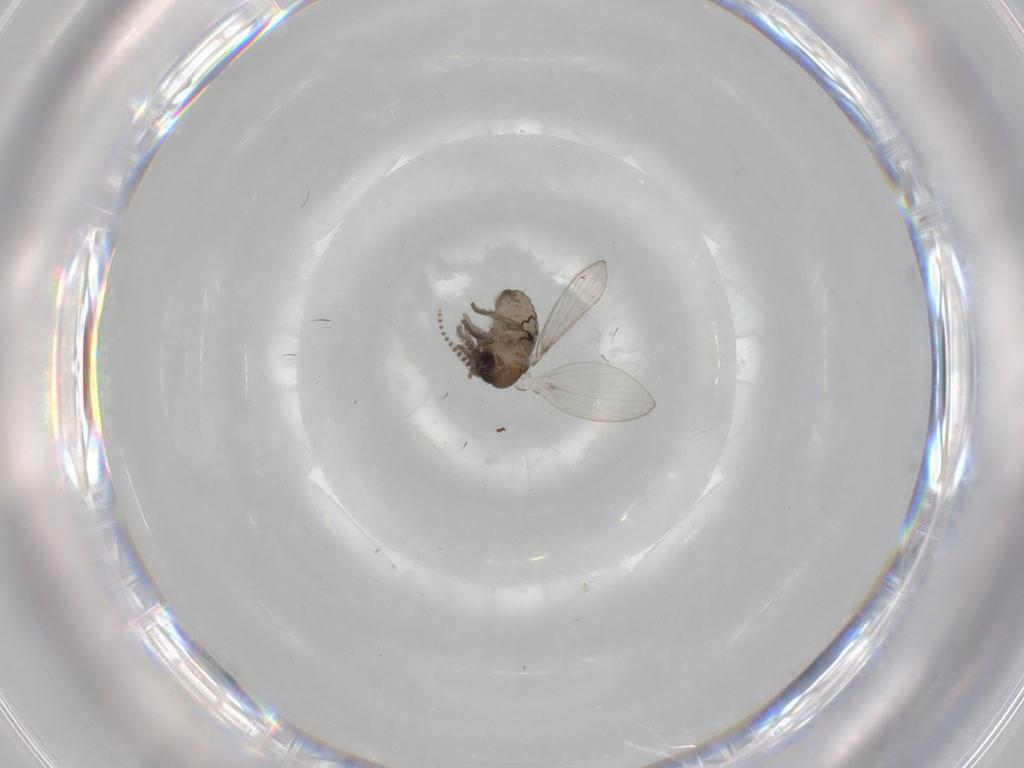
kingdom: Animalia
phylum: Arthropoda
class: Insecta
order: Diptera
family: Psychodidae
